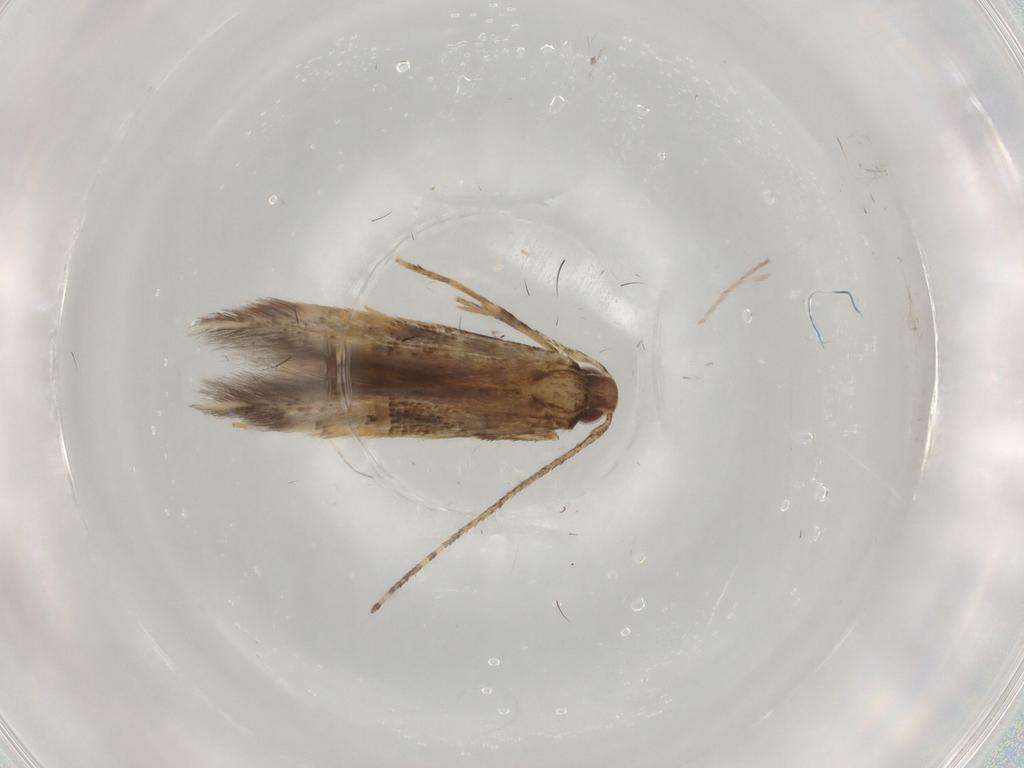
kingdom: Animalia
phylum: Arthropoda
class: Insecta
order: Lepidoptera
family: Cosmopterigidae
